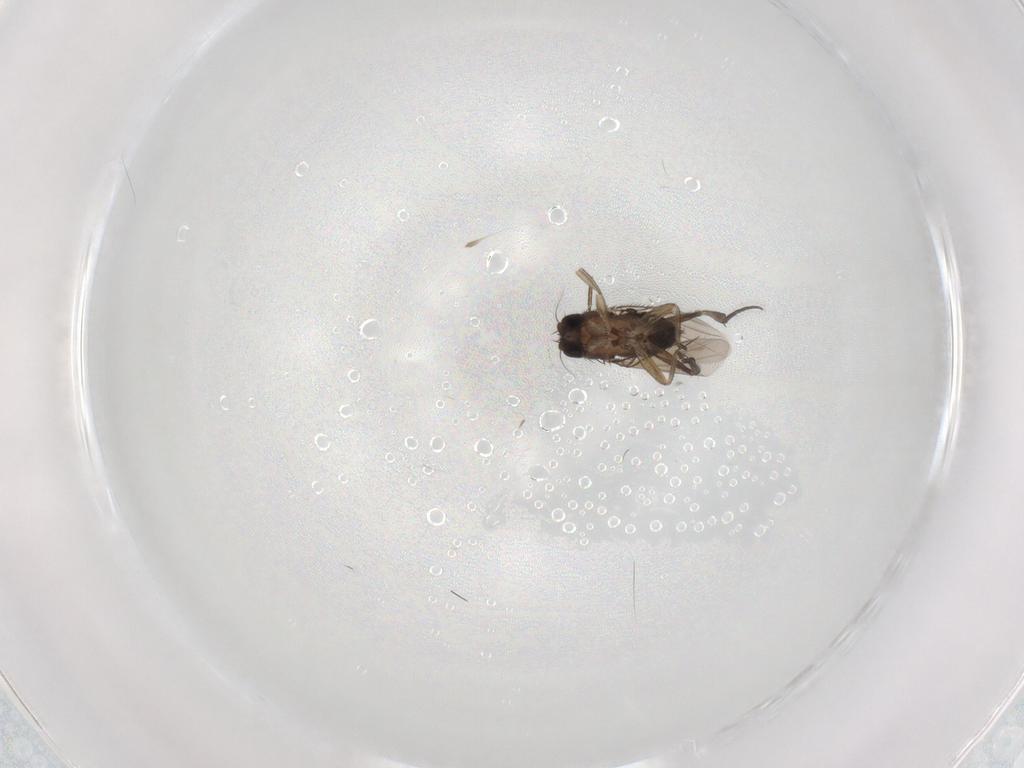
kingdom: Animalia
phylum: Arthropoda
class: Insecta
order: Diptera
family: Phoridae
